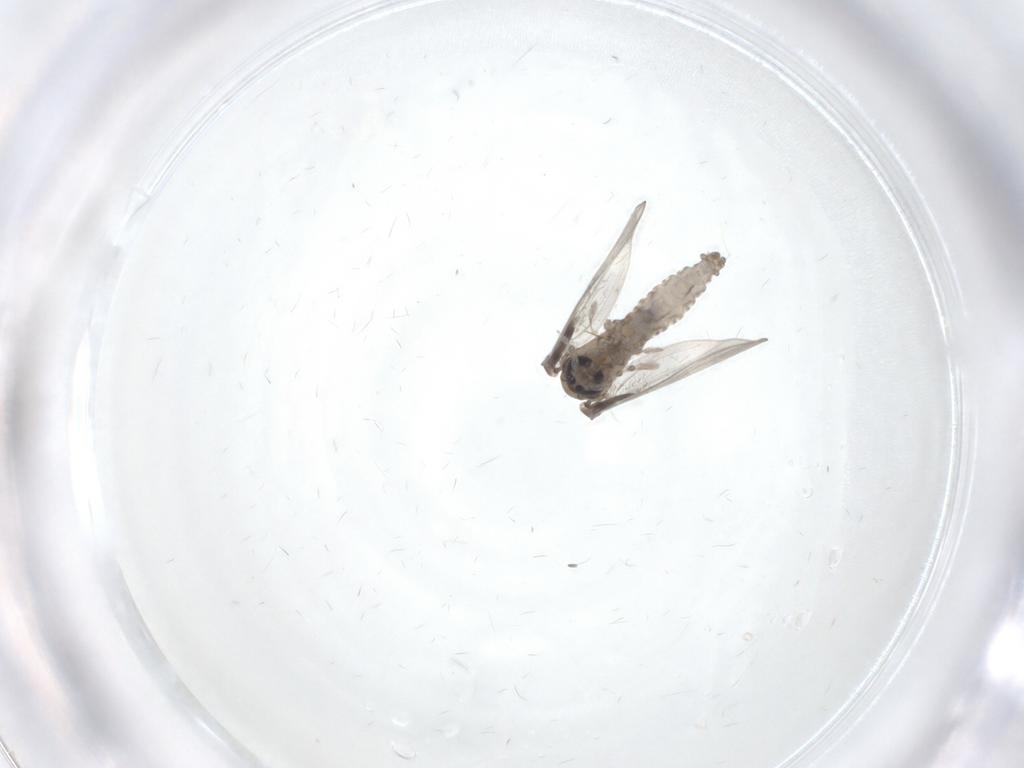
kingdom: Animalia
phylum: Arthropoda
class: Insecta
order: Diptera
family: Psychodidae
